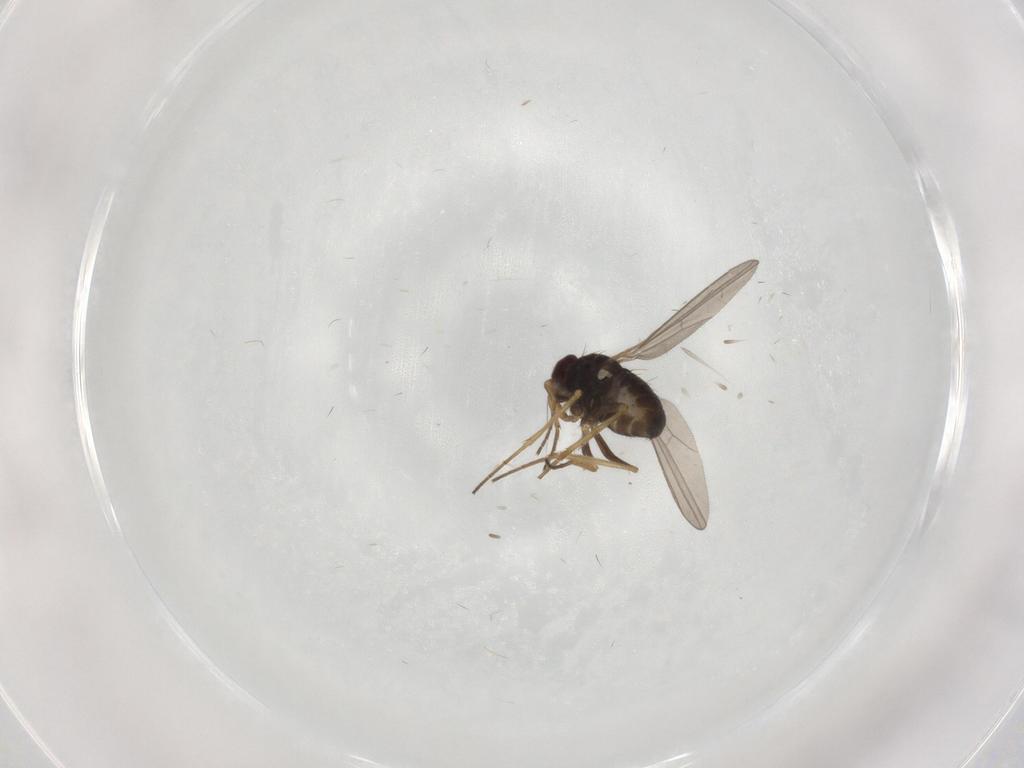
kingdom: Animalia
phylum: Arthropoda
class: Insecta
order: Diptera
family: Dolichopodidae
